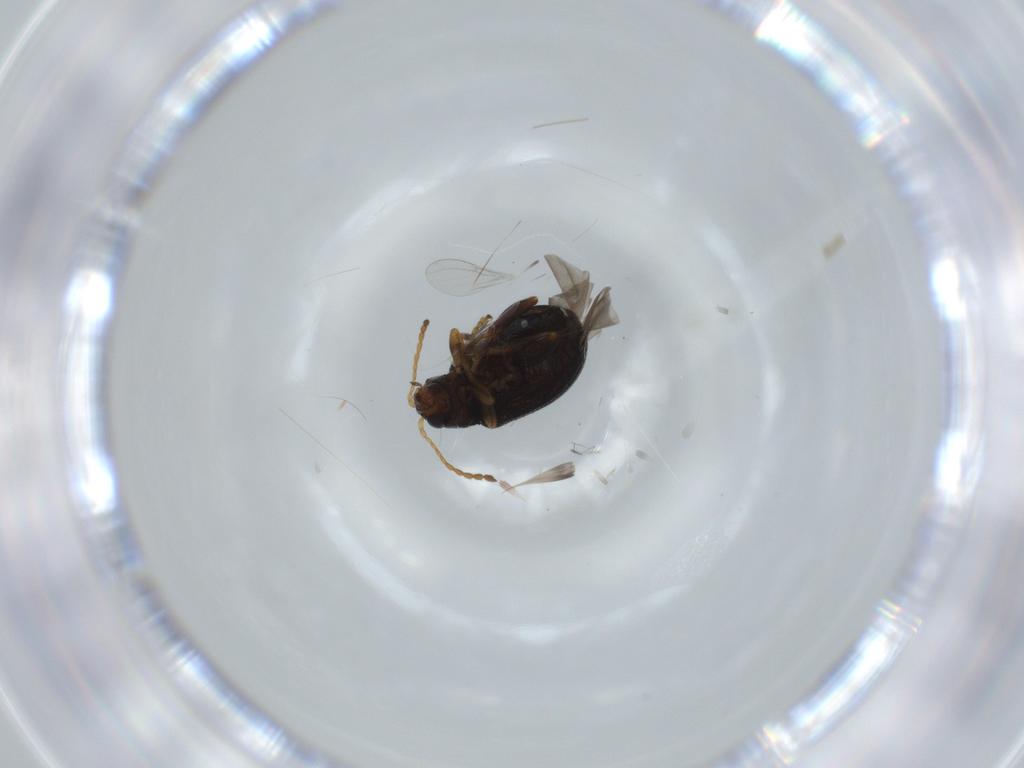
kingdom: Animalia
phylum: Arthropoda
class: Insecta
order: Coleoptera
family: Chrysomelidae
